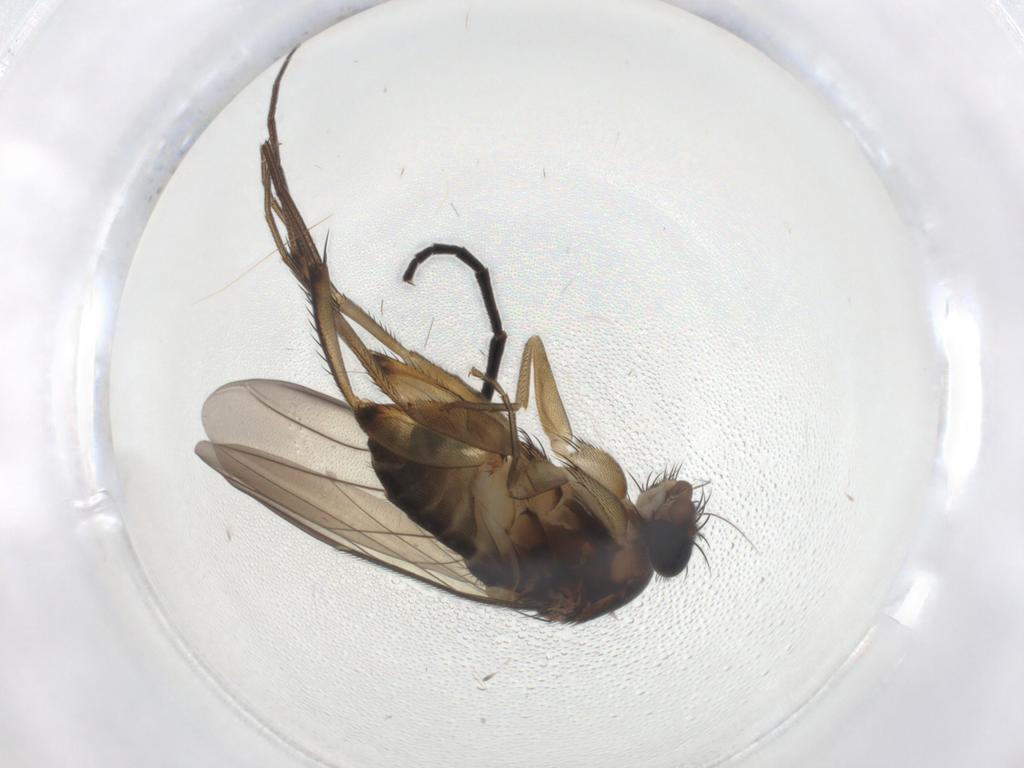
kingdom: Animalia
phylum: Arthropoda
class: Insecta
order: Diptera
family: Phoridae
